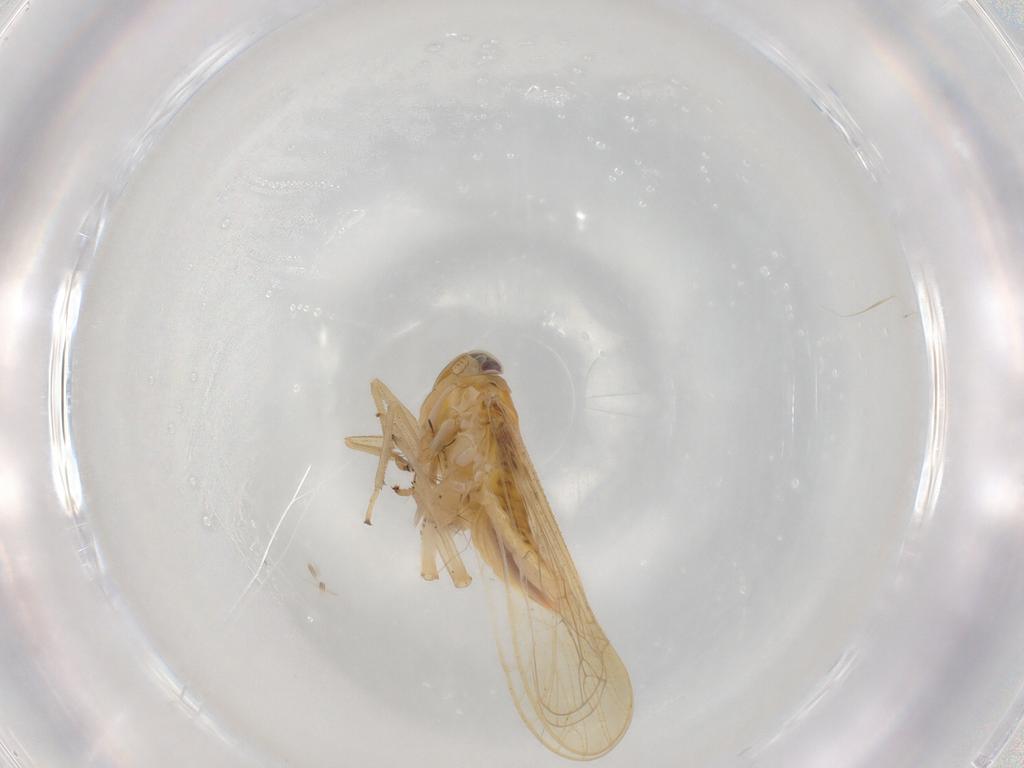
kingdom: Animalia
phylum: Arthropoda
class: Insecta
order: Hemiptera
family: Delphacidae
